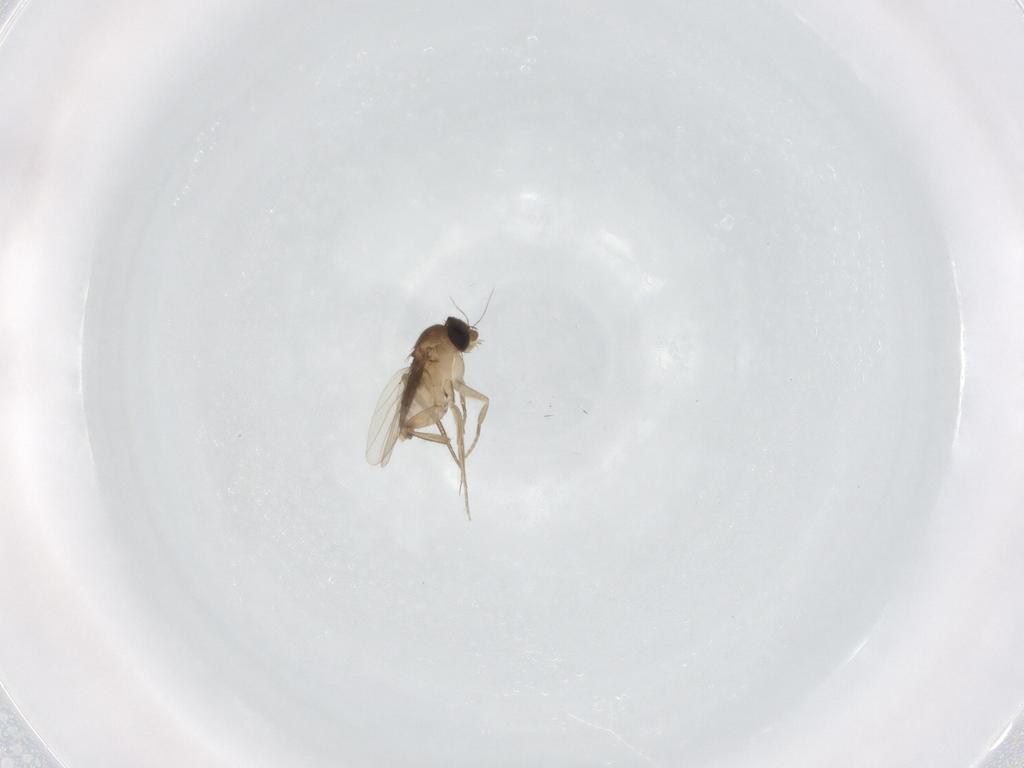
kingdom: Animalia
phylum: Arthropoda
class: Insecta
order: Diptera
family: Phoridae
